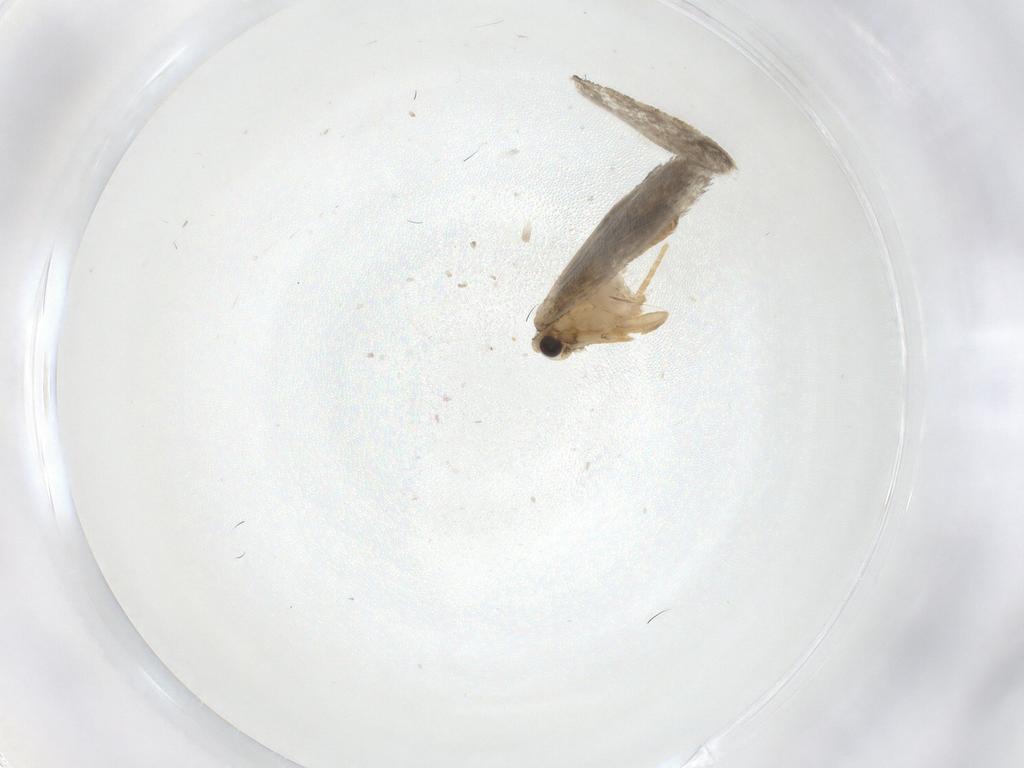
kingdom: Animalia
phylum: Arthropoda
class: Insecta
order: Lepidoptera
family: Psychidae
